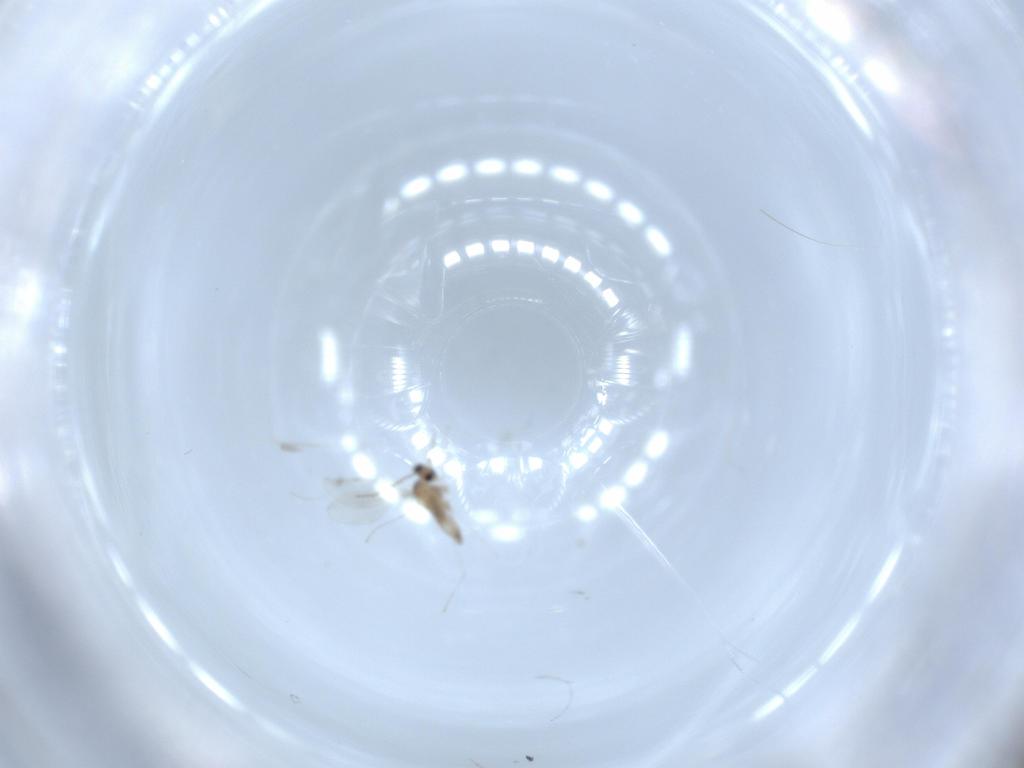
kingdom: Animalia
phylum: Arthropoda
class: Insecta
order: Diptera
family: Cecidomyiidae
